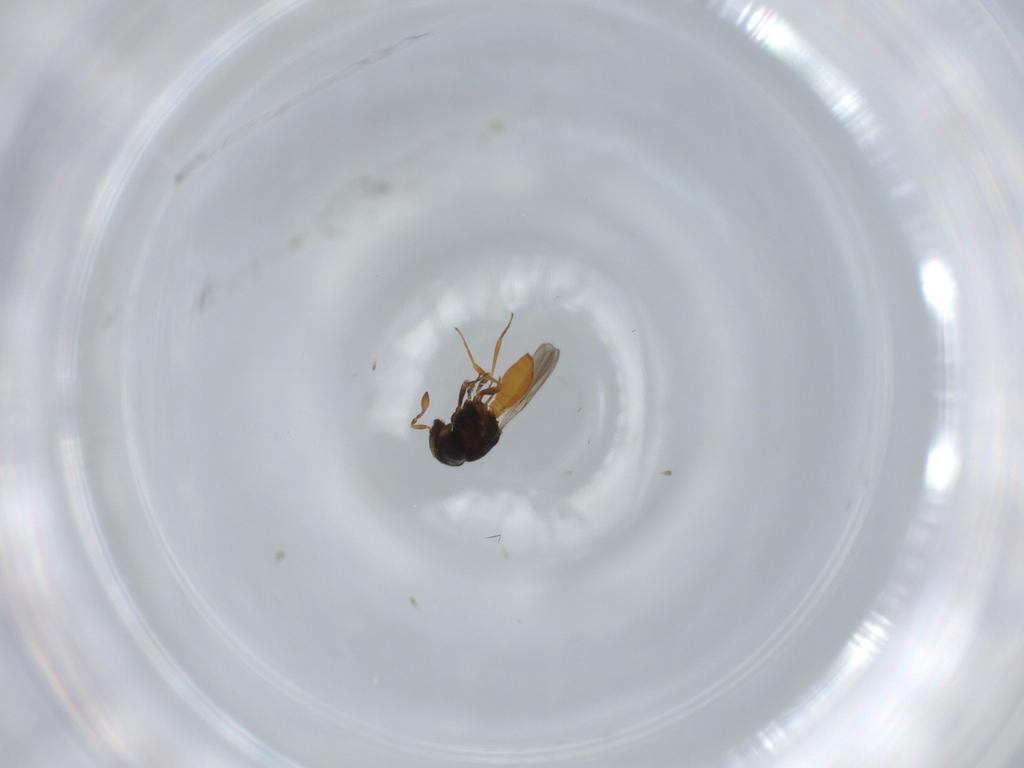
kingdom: Animalia
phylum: Arthropoda
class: Insecta
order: Hymenoptera
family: Scelionidae
